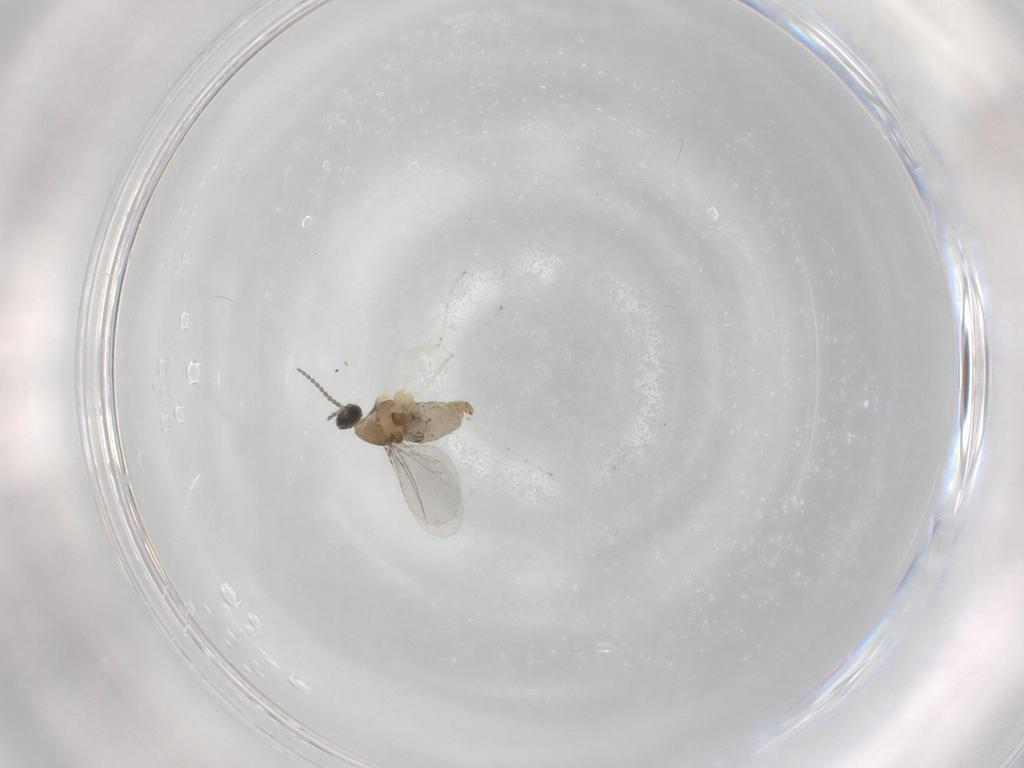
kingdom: Animalia
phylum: Arthropoda
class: Insecta
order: Diptera
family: Cecidomyiidae
